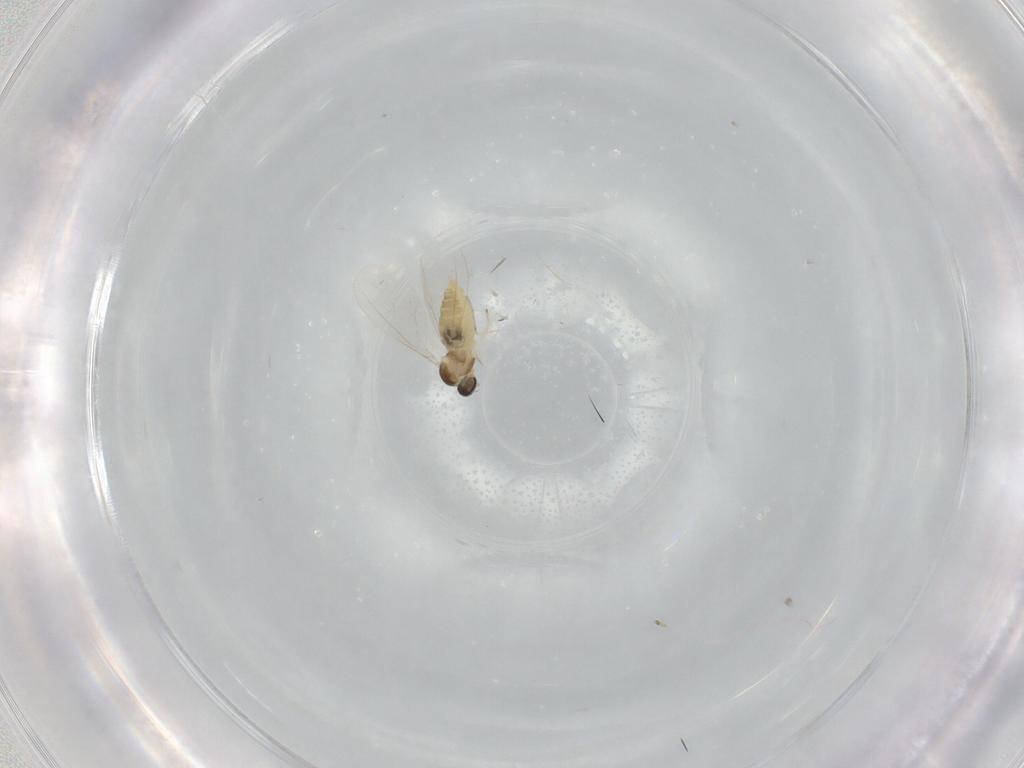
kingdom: Animalia
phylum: Arthropoda
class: Insecta
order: Diptera
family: Cecidomyiidae
